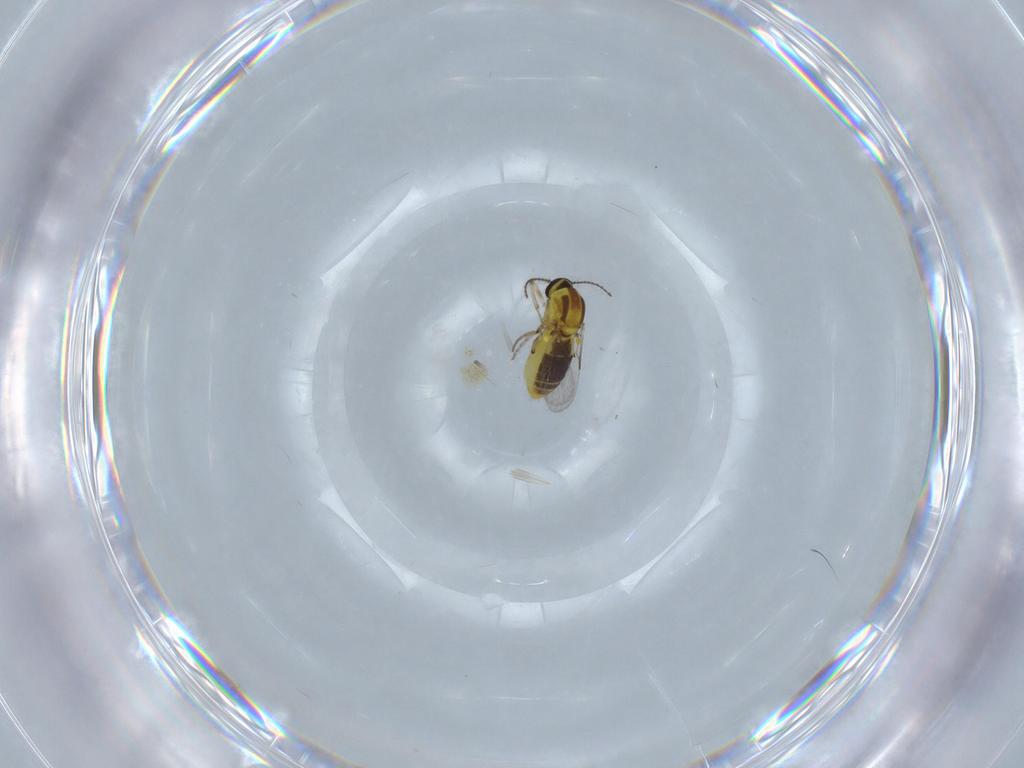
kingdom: Animalia
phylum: Arthropoda
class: Insecta
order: Diptera
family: Ceratopogonidae
